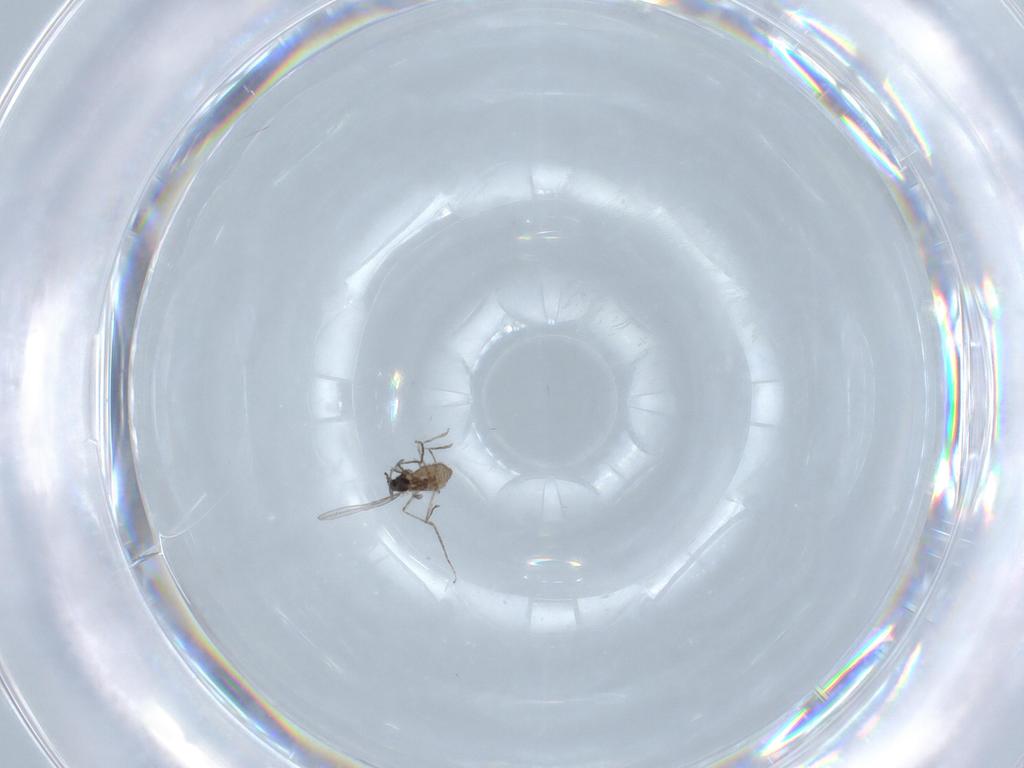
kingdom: Animalia
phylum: Arthropoda
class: Insecta
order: Diptera
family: Cecidomyiidae
